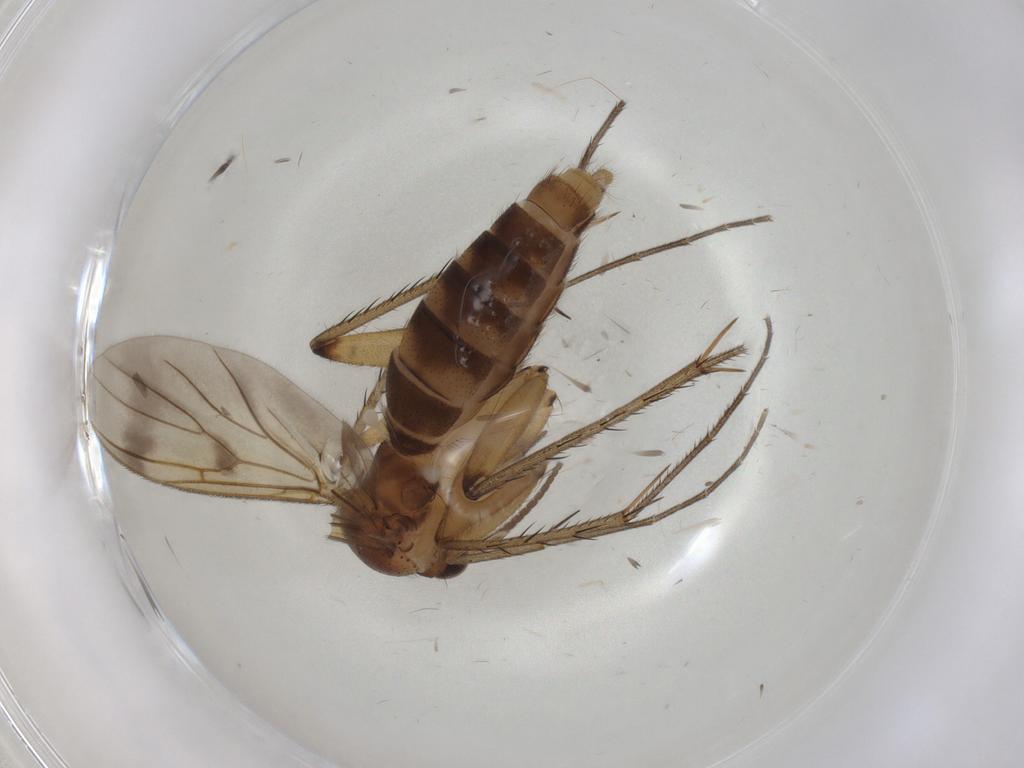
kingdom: Animalia
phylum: Arthropoda
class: Insecta
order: Diptera
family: Mycetophilidae
